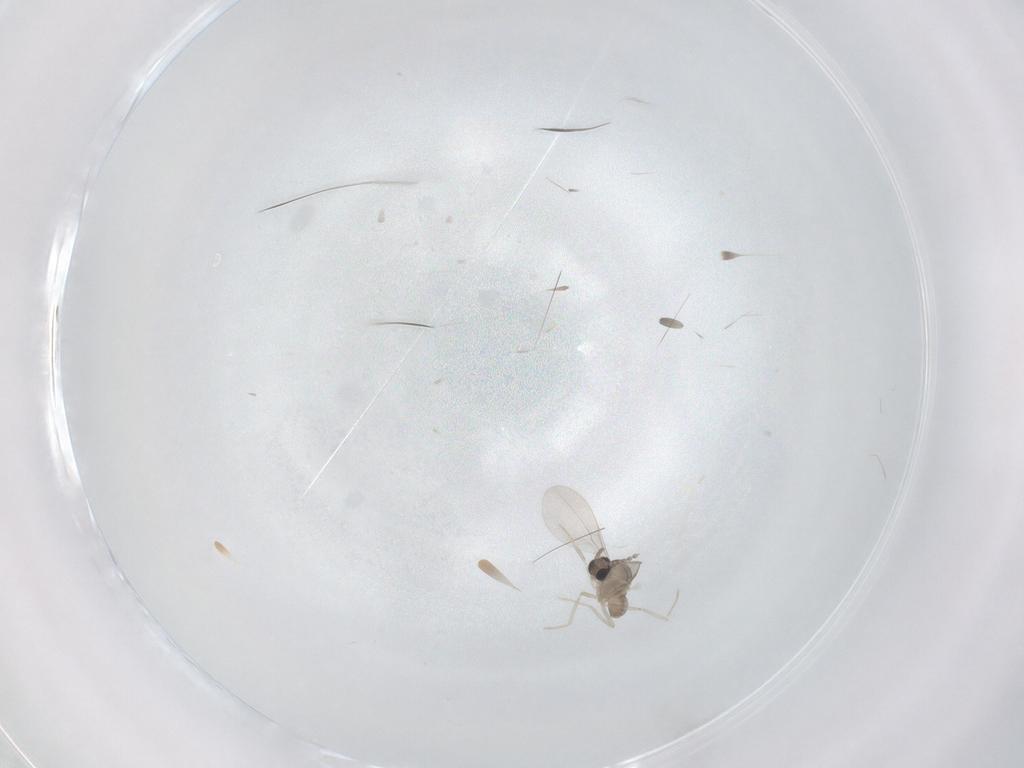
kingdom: Animalia
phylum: Arthropoda
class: Insecta
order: Diptera
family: Cecidomyiidae
